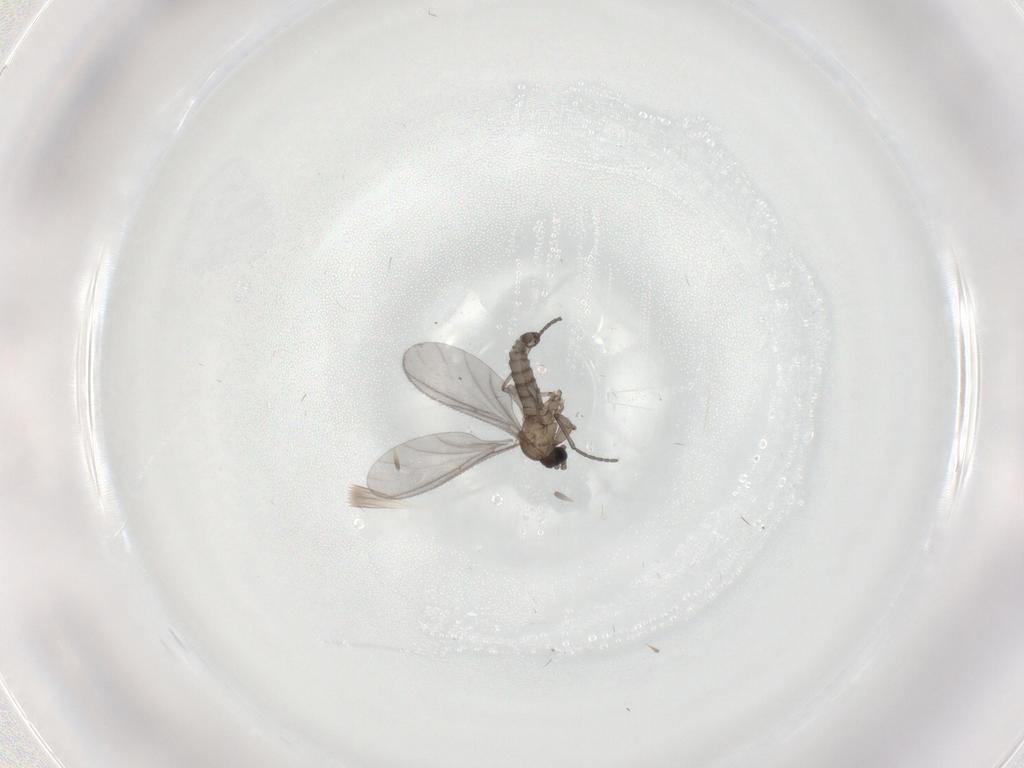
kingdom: Animalia
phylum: Arthropoda
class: Insecta
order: Diptera
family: Sciaridae
